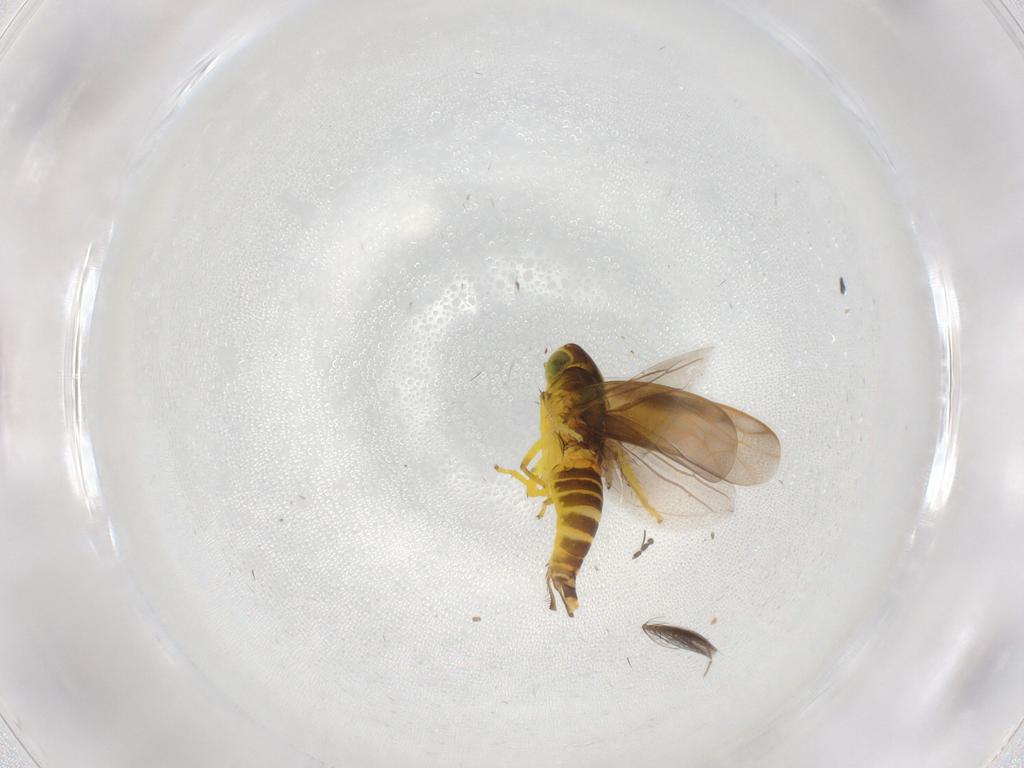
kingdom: Animalia
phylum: Arthropoda
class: Insecta
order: Hemiptera
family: Cicadellidae
